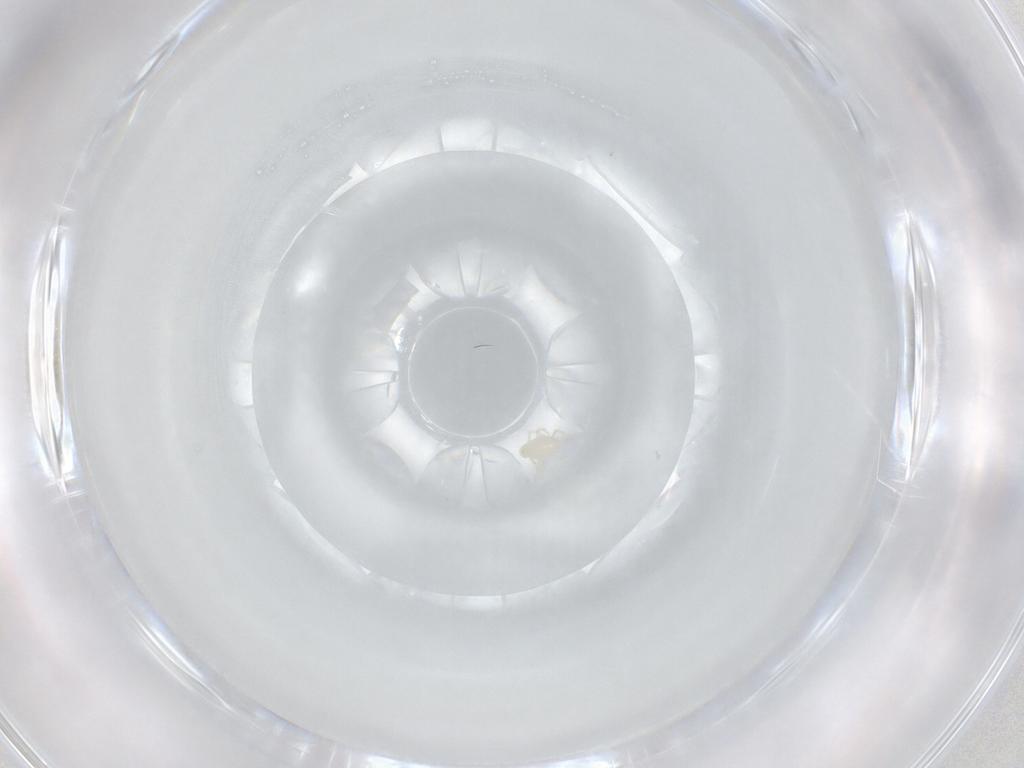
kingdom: Animalia
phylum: Arthropoda
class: Arachnida
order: Trombidiformes
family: Microtrombidiidae
